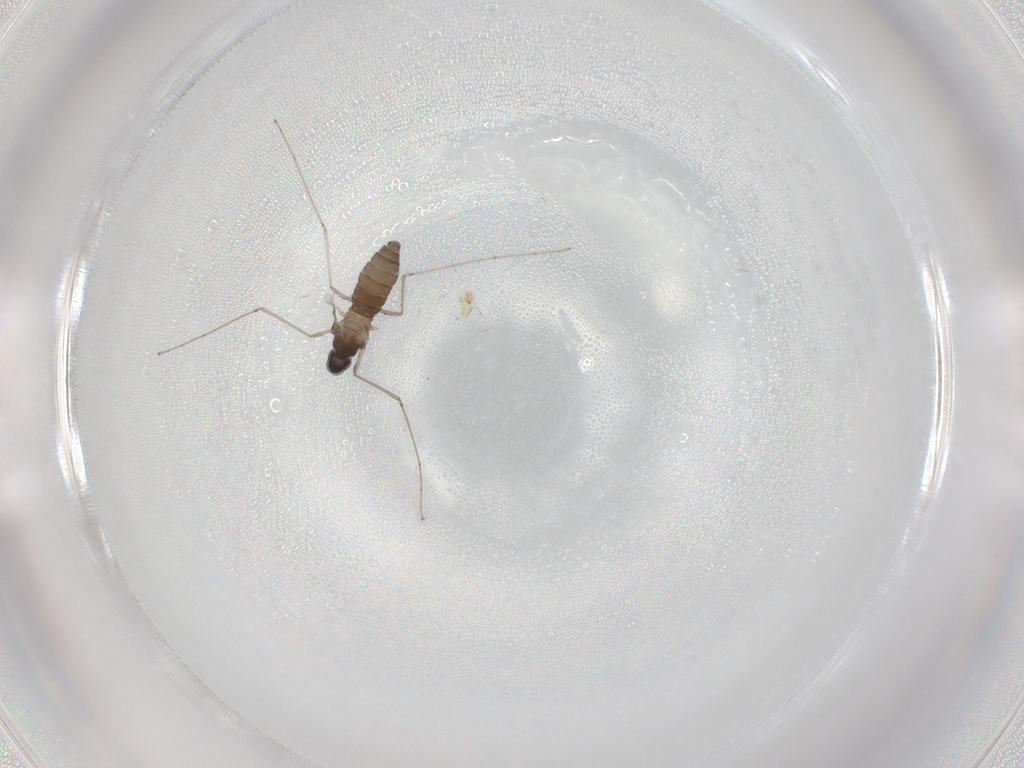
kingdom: Animalia
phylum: Arthropoda
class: Insecta
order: Diptera
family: Cecidomyiidae
